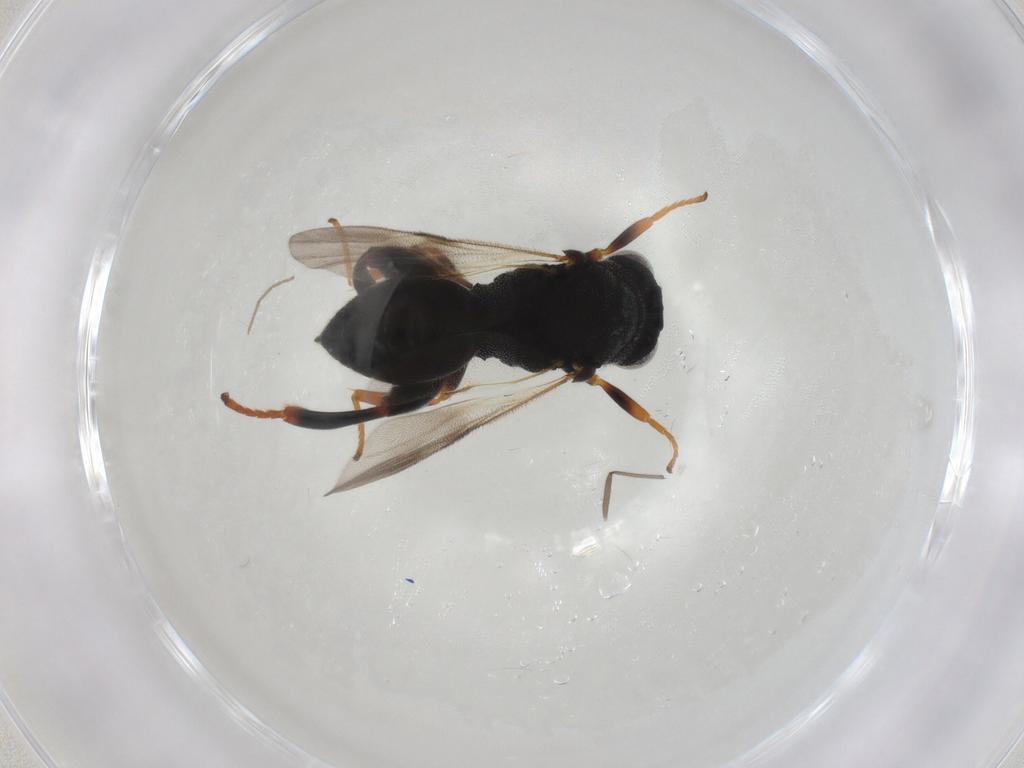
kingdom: Animalia
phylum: Arthropoda
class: Insecta
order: Hymenoptera
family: Chalcididae
